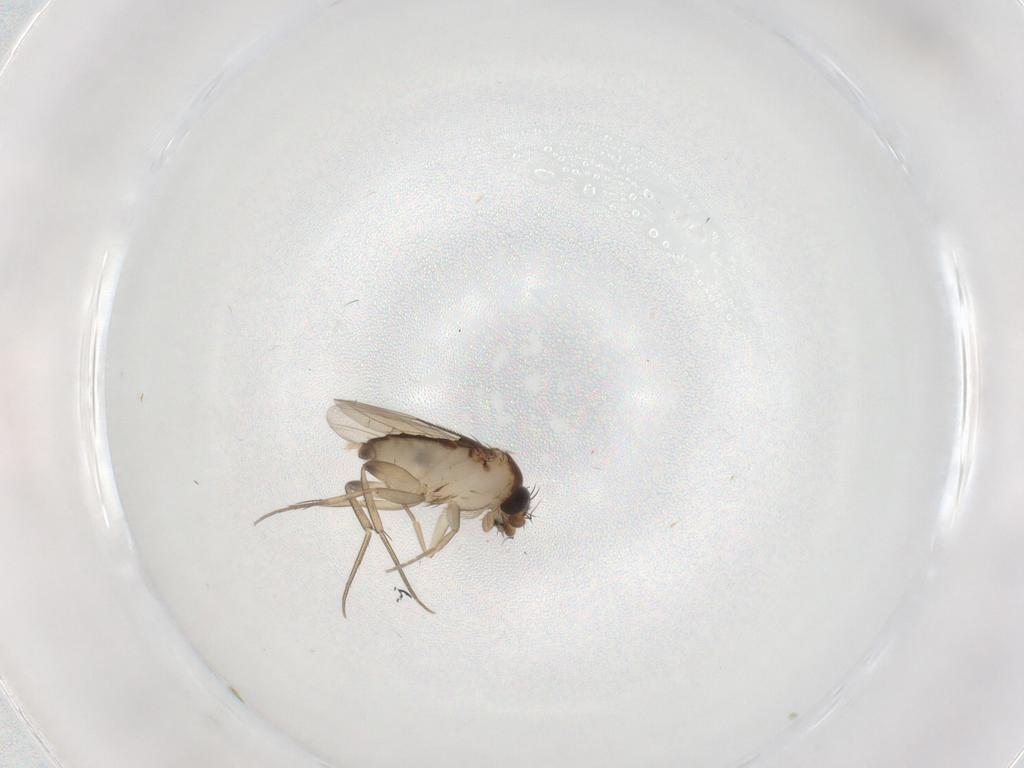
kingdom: Animalia
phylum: Arthropoda
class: Insecta
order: Diptera
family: Phoridae
